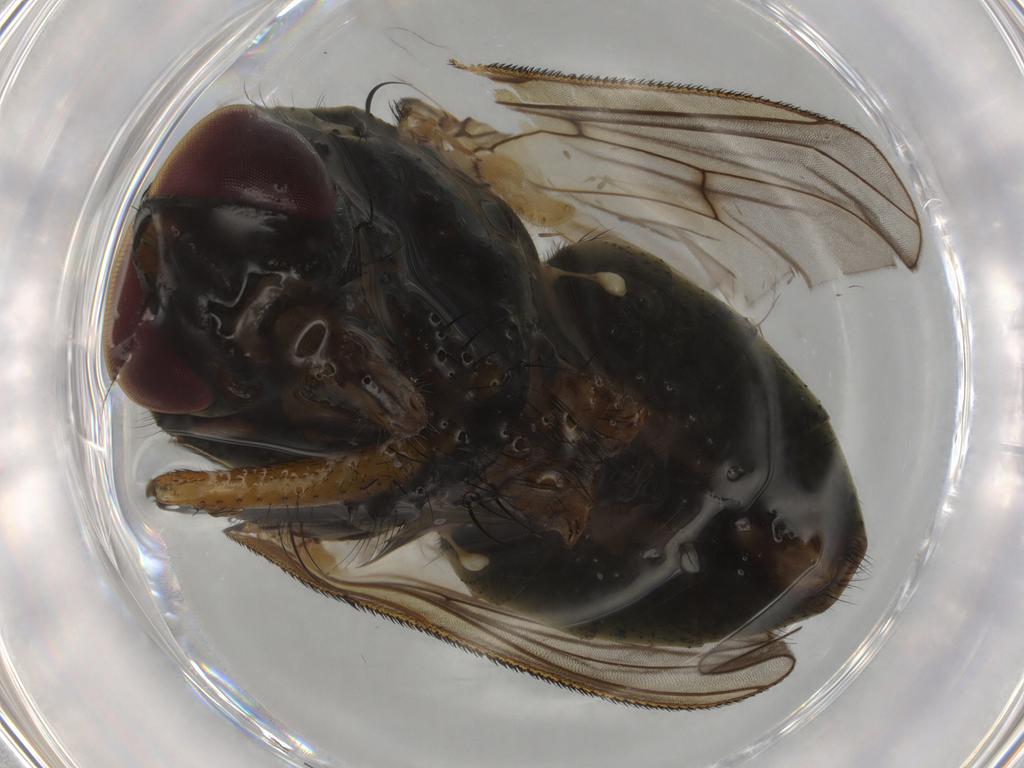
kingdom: Animalia
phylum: Arthropoda
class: Insecta
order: Diptera
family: Muscidae
